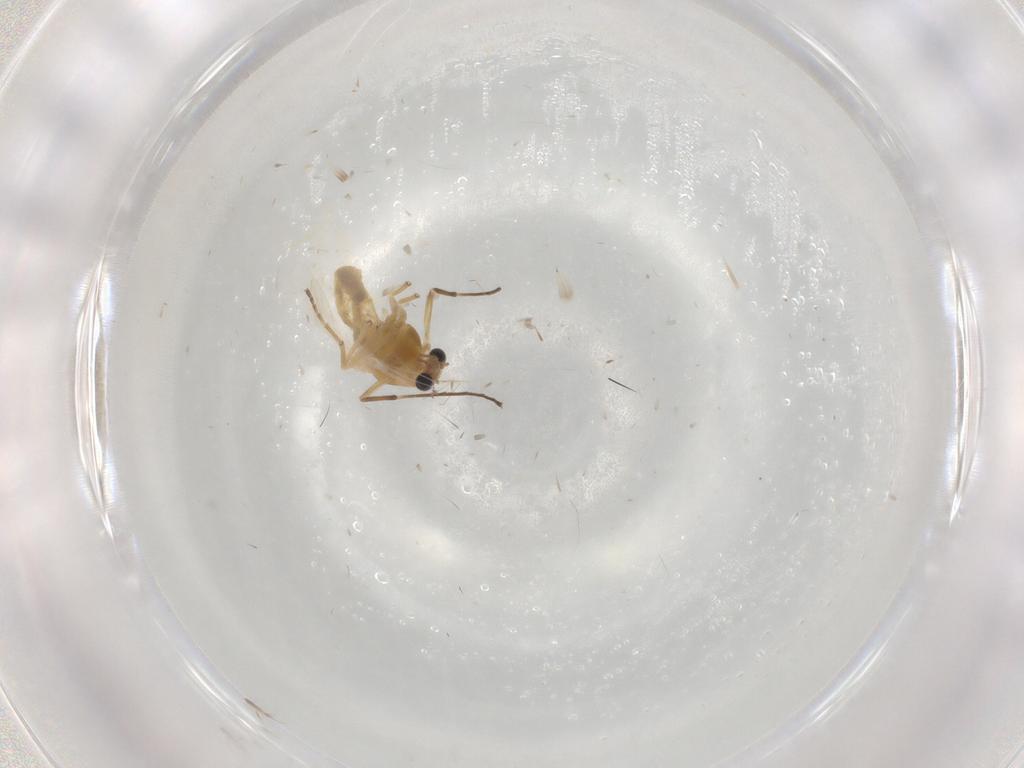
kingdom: Animalia
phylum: Arthropoda
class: Insecta
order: Diptera
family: Chironomidae
